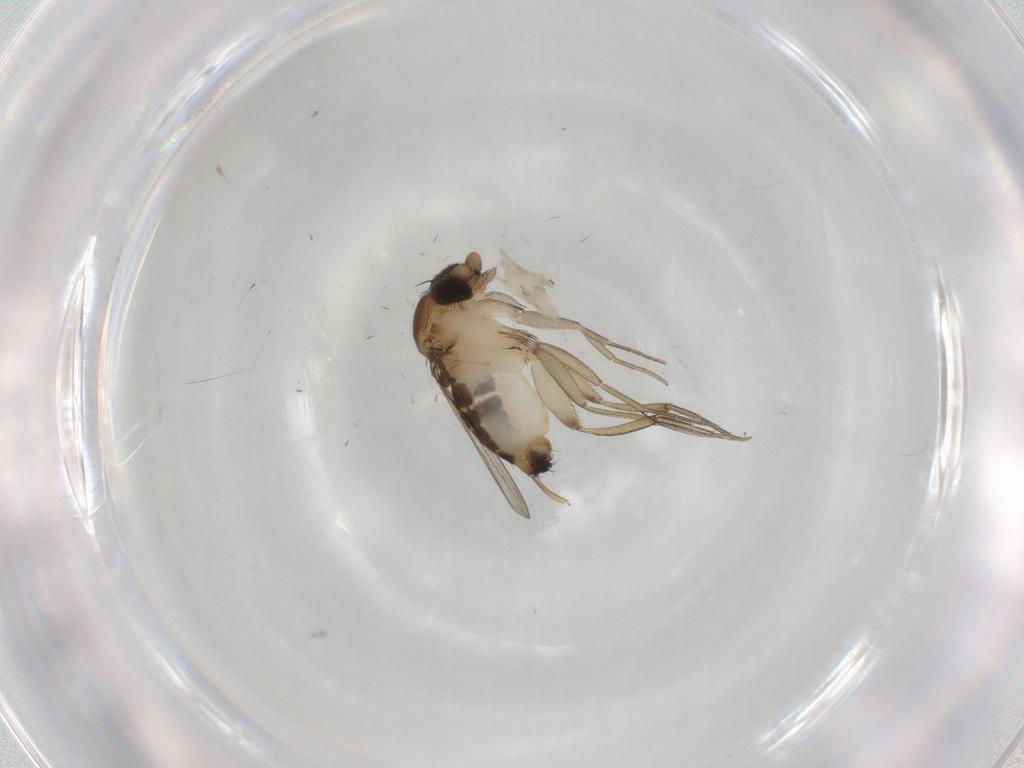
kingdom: Animalia
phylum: Arthropoda
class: Insecta
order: Diptera
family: Phoridae
